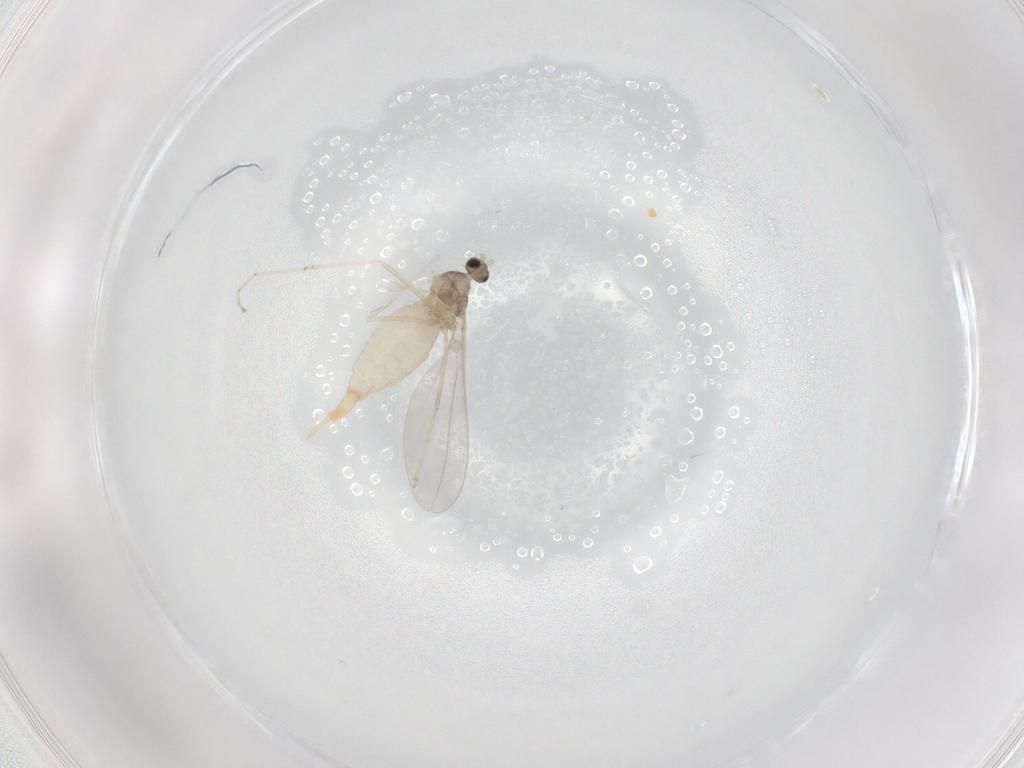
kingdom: Animalia
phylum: Arthropoda
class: Insecta
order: Diptera
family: Cecidomyiidae
